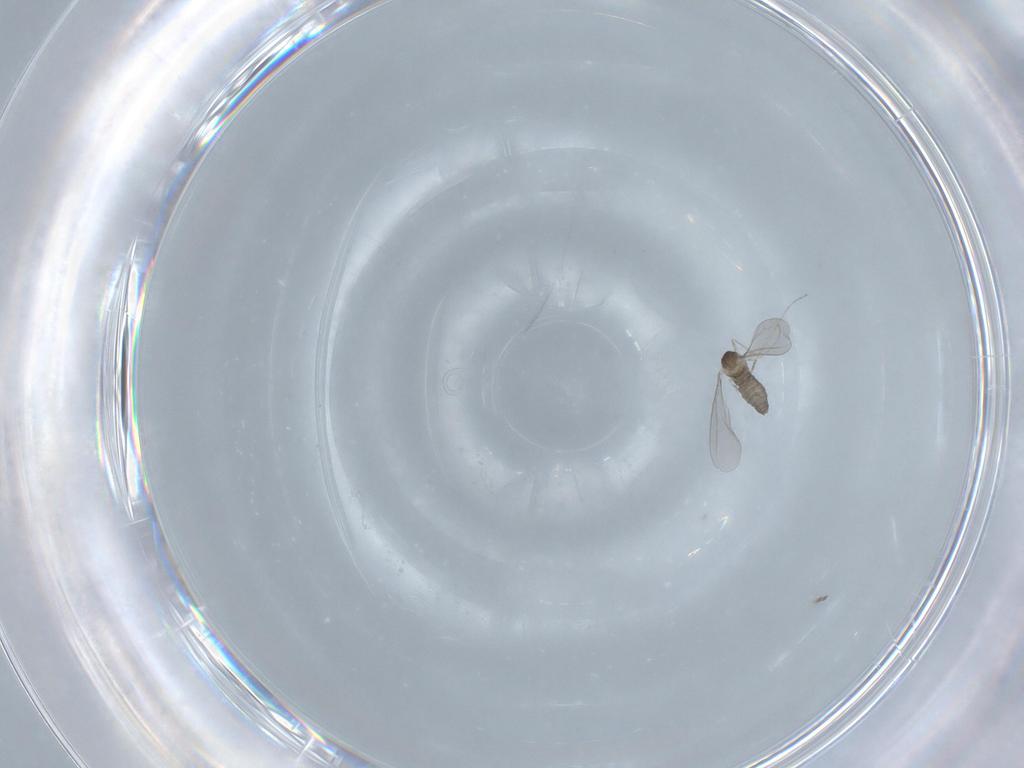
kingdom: Animalia
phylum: Arthropoda
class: Insecta
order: Diptera
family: Cecidomyiidae
